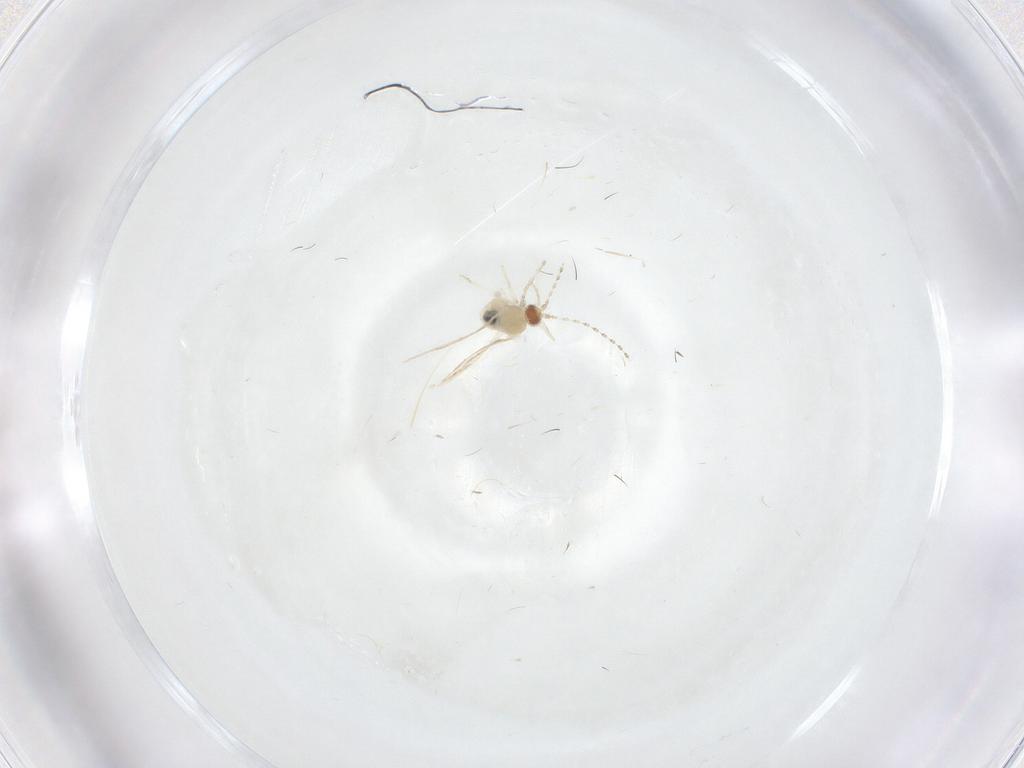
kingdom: Animalia
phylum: Arthropoda
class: Insecta
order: Diptera
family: Cecidomyiidae
